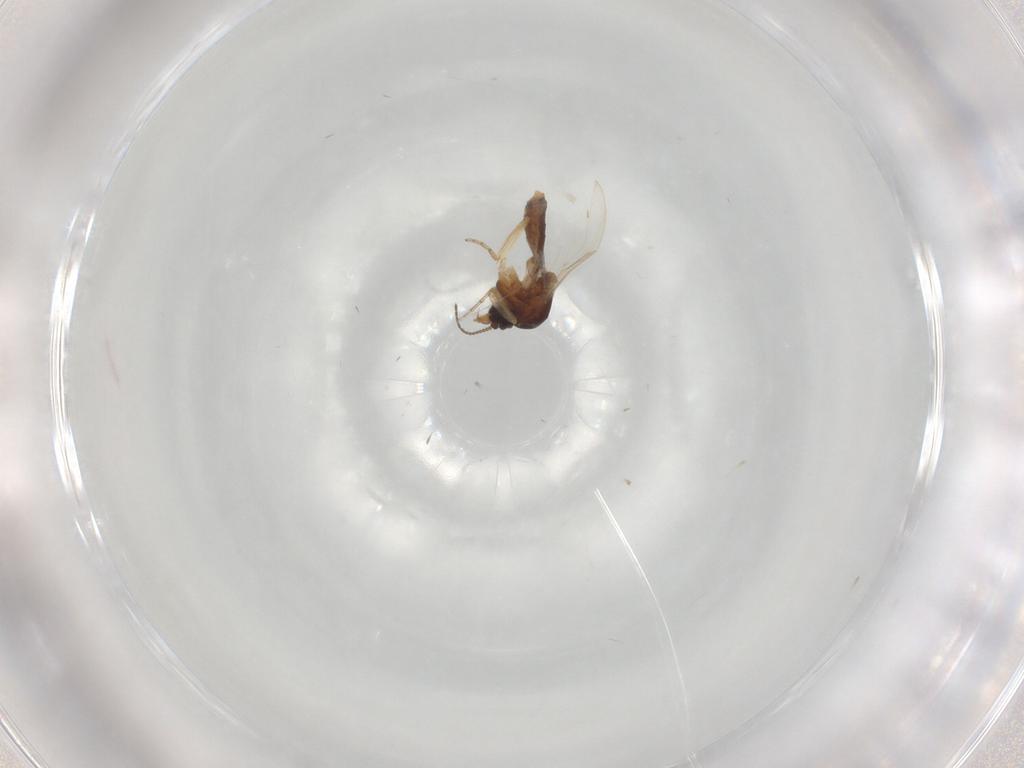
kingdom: Animalia
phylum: Arthropoda
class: Insecta
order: Diptera
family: Ceratopogonidae
